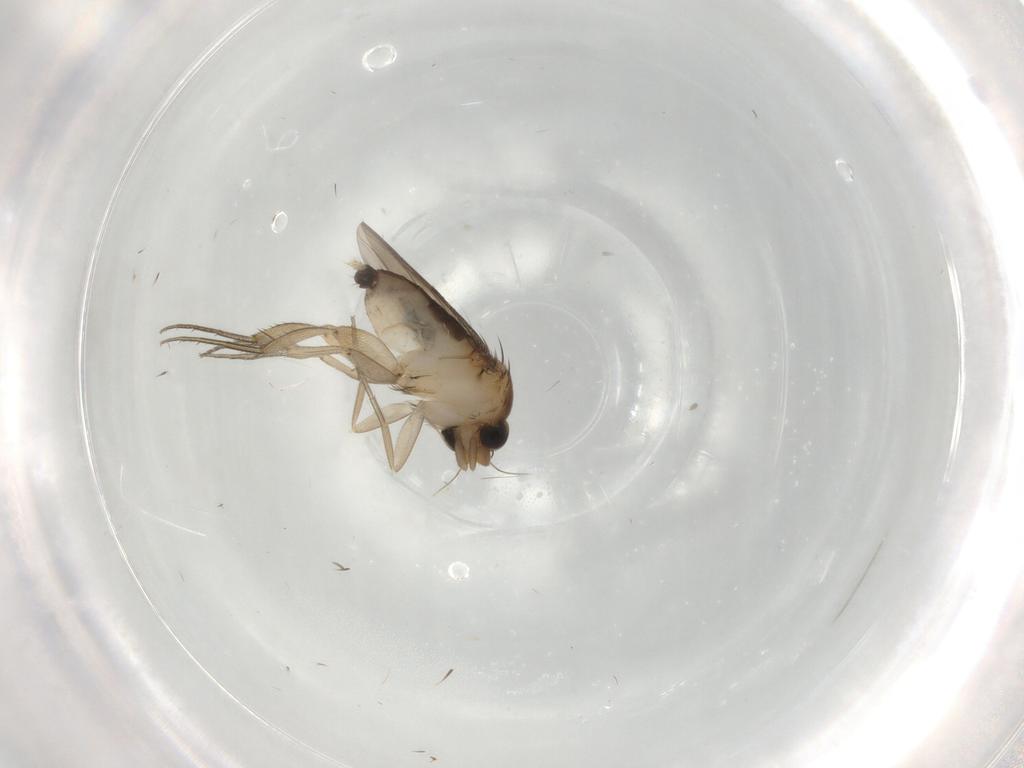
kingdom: Animalia
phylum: Arthropoda
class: Insecta
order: Diptera
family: Phoridae
